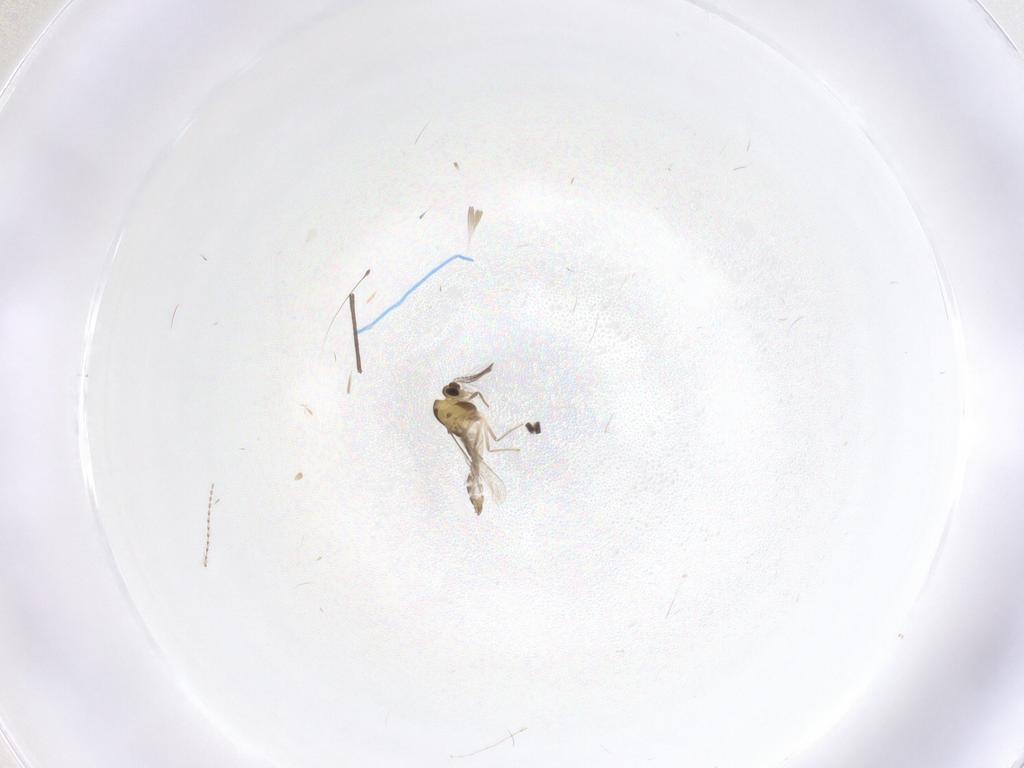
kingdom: Animalia
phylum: Arthropoda
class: Insecta
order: Diptera
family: Chironomidae
